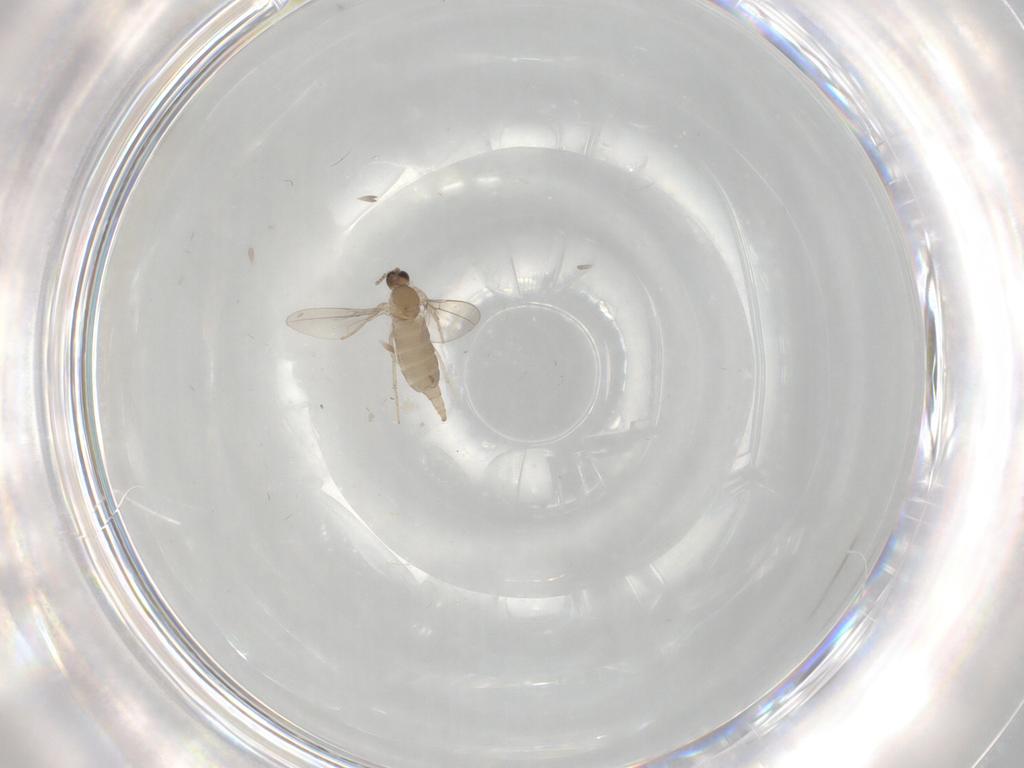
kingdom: Animalia
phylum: Arthropoda
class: Insecta
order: Diptera
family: Cecidomyiidae
